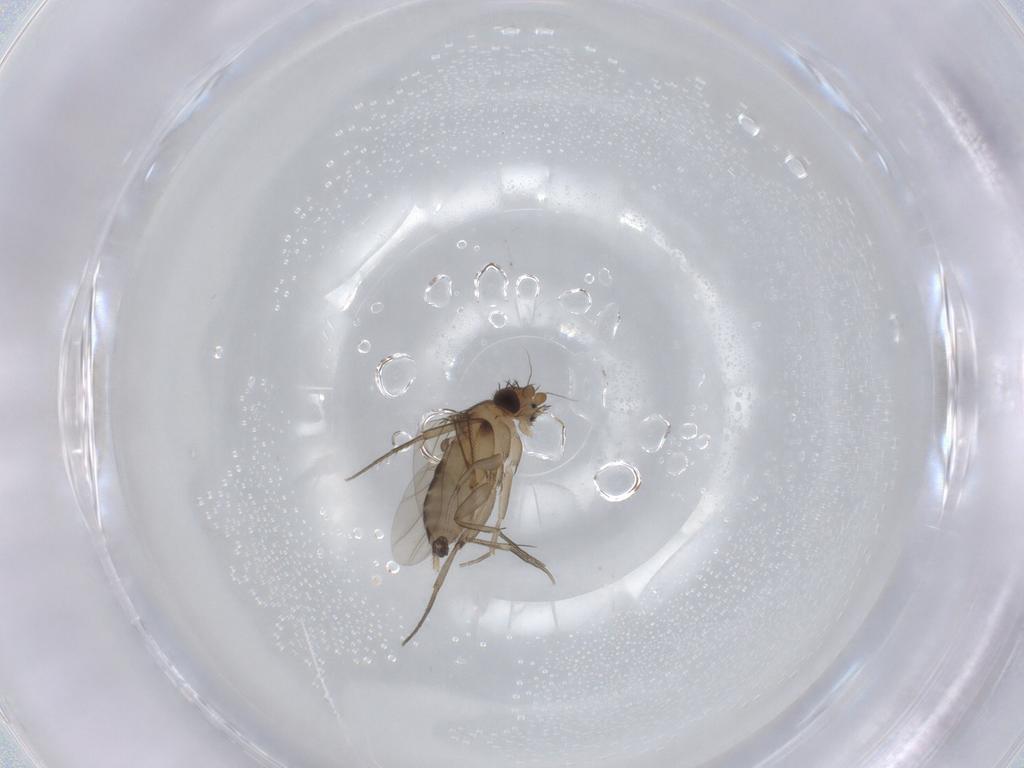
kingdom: Animalia
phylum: Arthropoda
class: Insecta
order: Diptera
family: Phoridae
